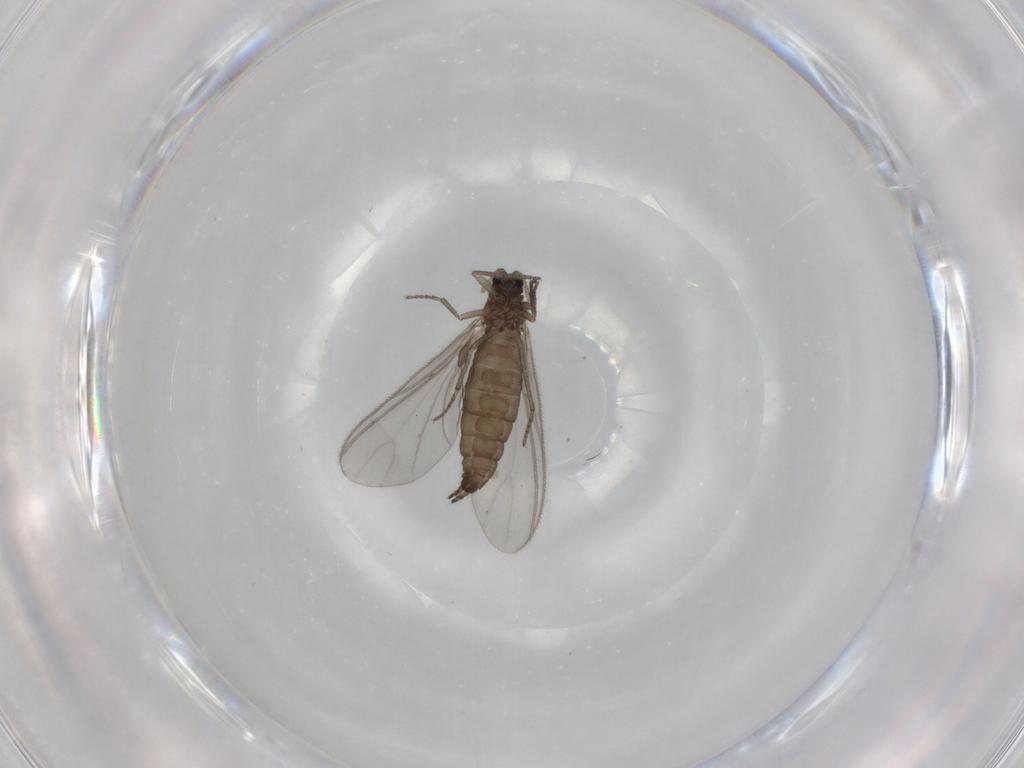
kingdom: Animalia
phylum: Arthropoda
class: Insecta
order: Diptera
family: Sciaridae
